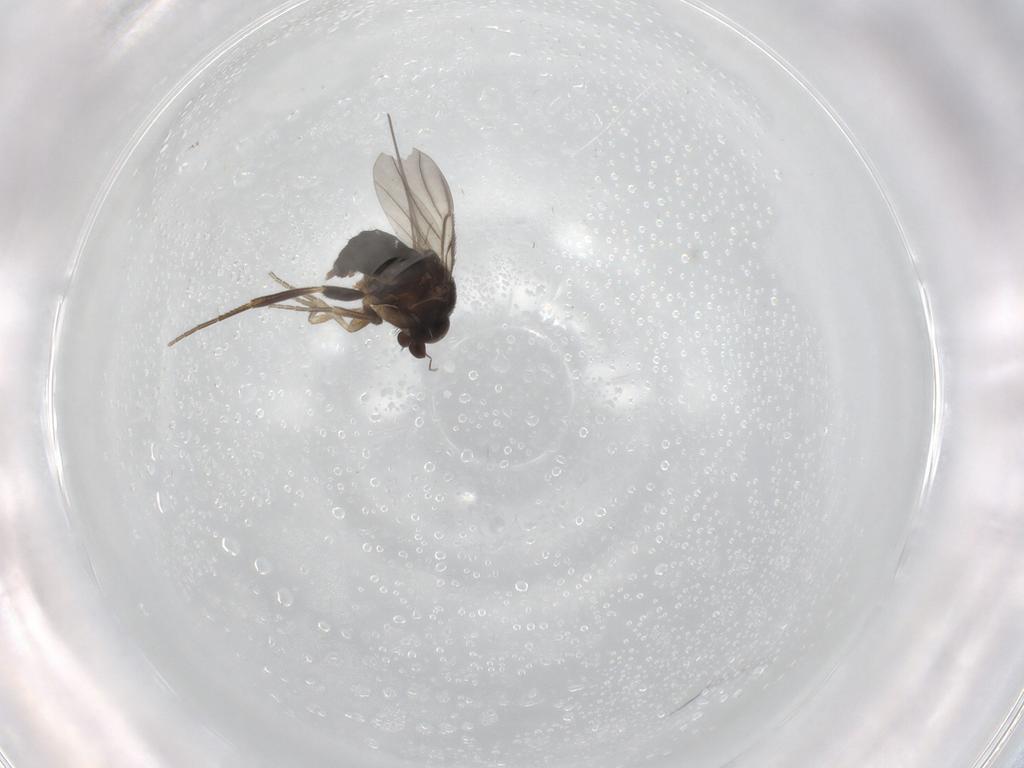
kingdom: Animalia
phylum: Arthropoda
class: Insecta
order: Diptera
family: Phoridae
